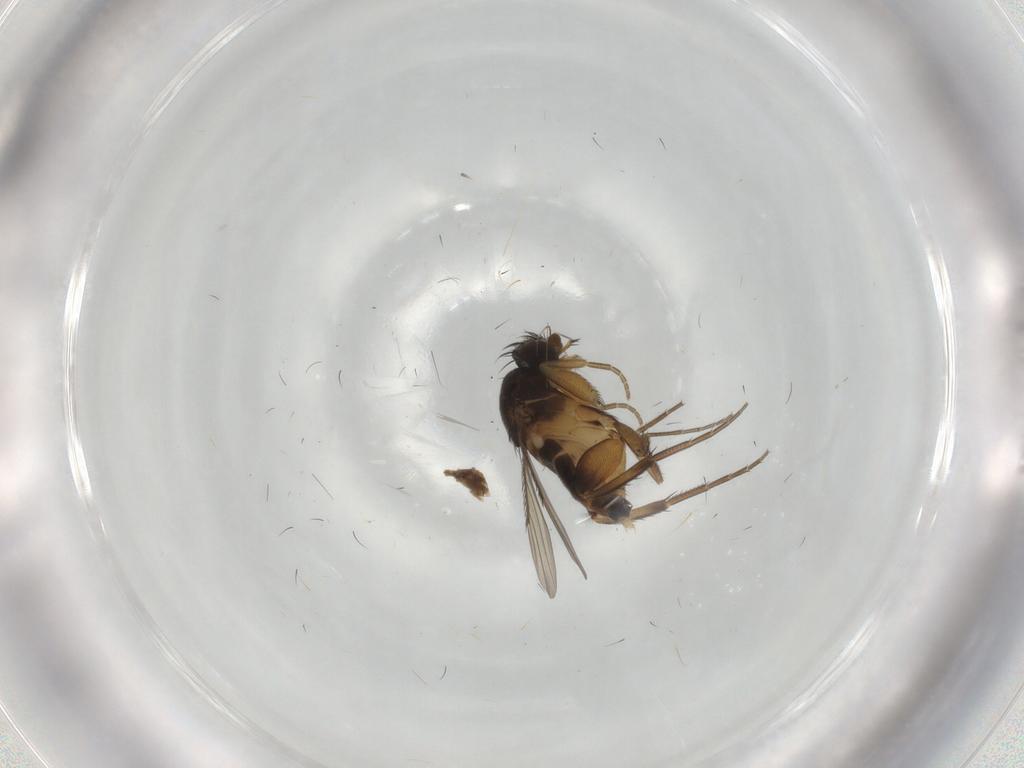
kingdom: Animalia
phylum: Arthropoda
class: Insecta
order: Diptera
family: Phoridae
